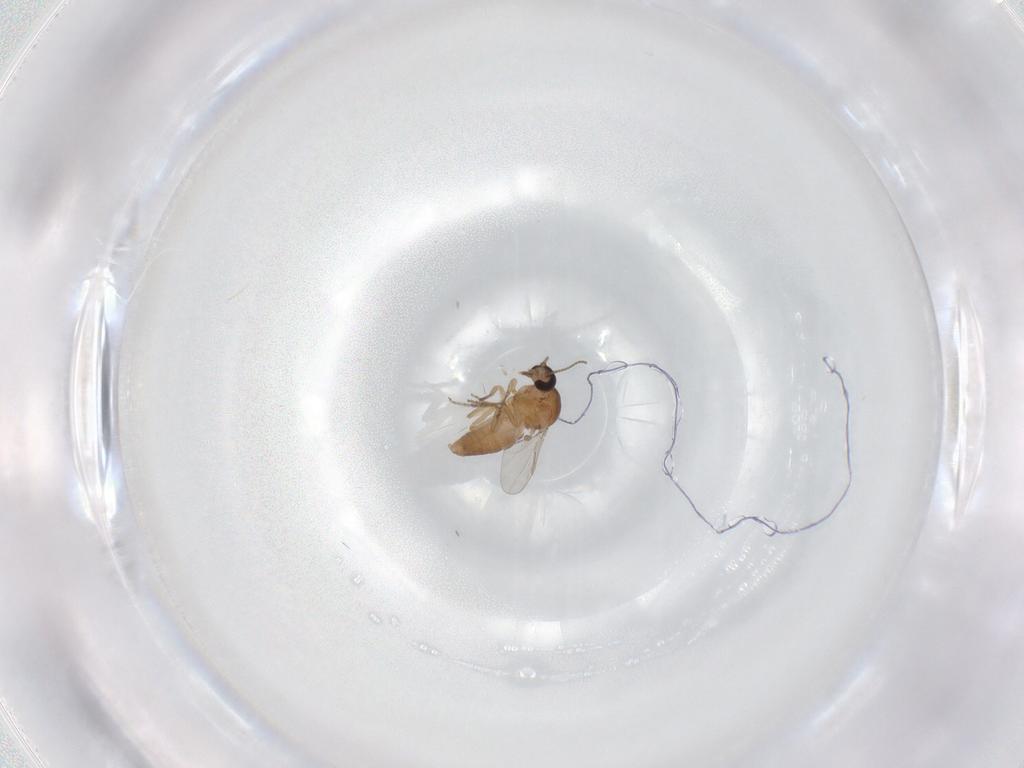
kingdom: Animalia
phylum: Arthropoda
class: Insecta
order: Diptera
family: Ceratopogonidae
